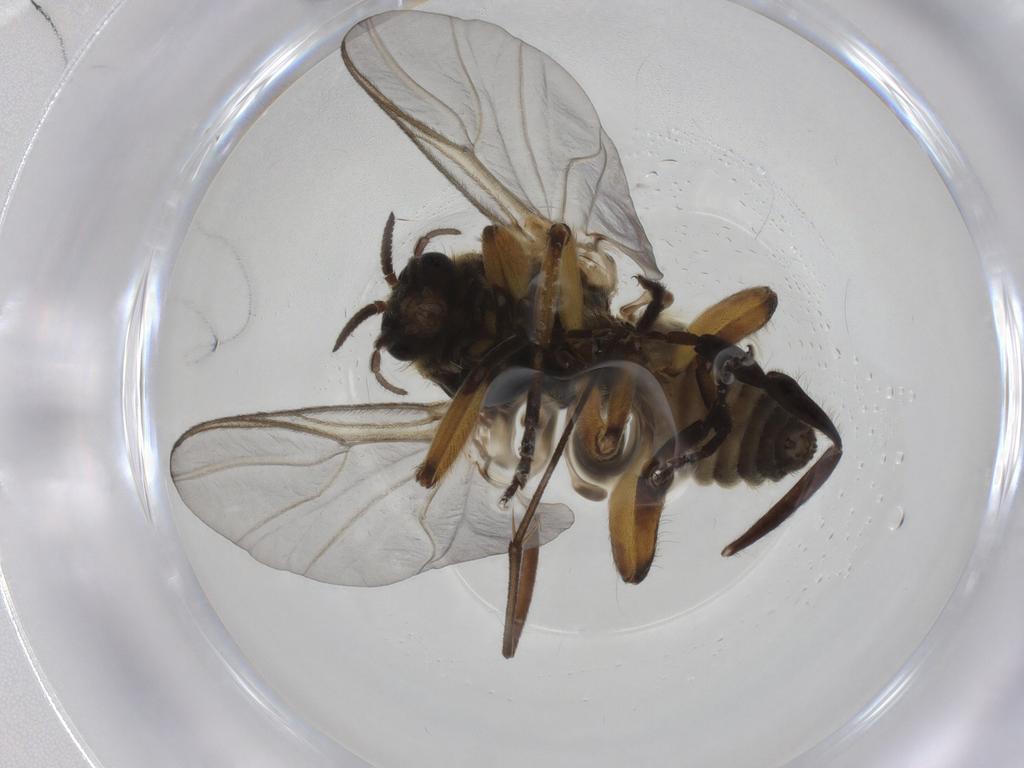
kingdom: Animalia
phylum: Arthropoda
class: Insecta
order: Diptera
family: Simuliidae
